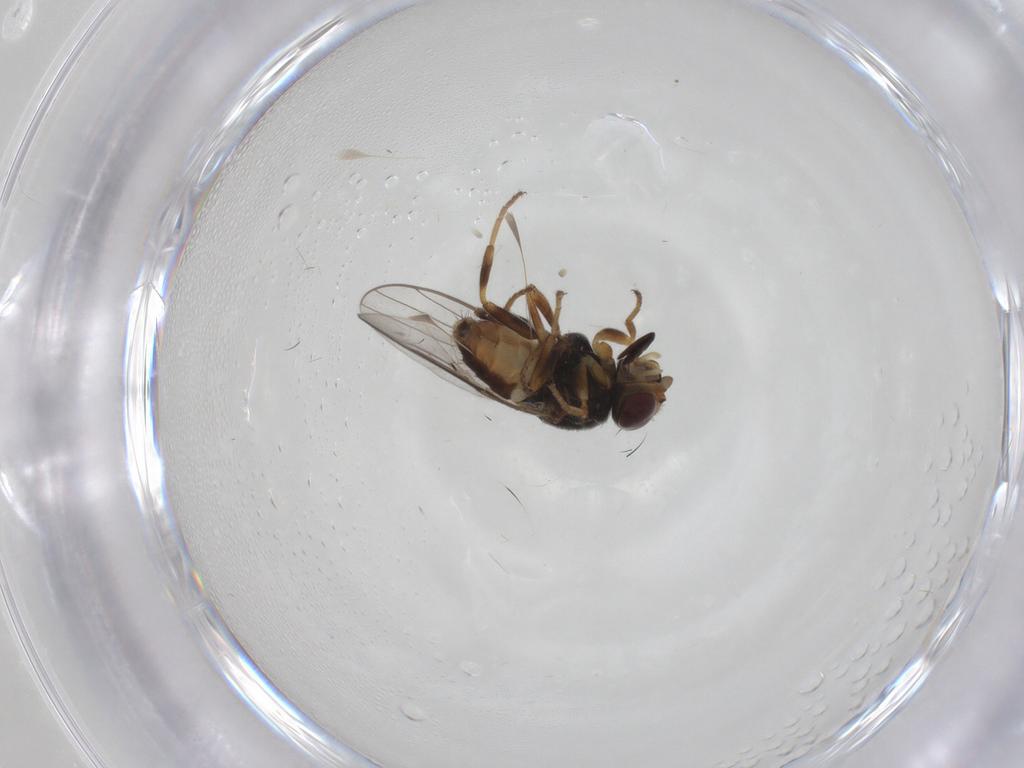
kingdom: Animalia
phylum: Arthropoda
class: Insecta
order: Diptera
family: Chloropidae
